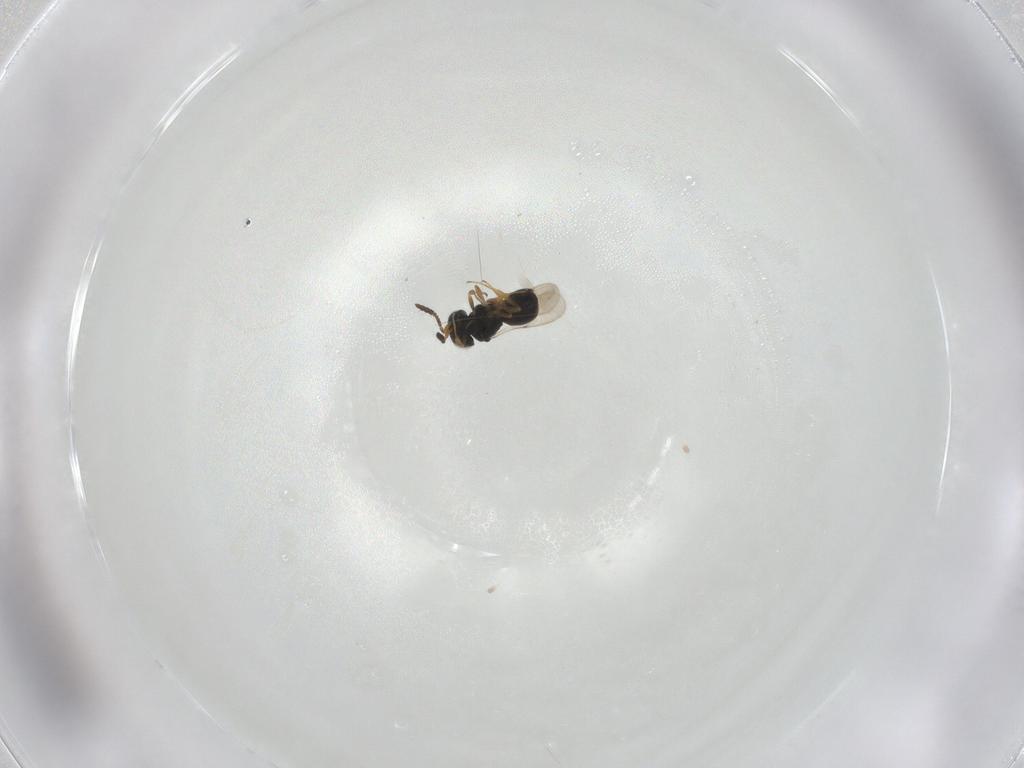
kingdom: Animalia
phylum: Arthropoda
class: Insecta
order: Hymenoptera
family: Scelionidae
